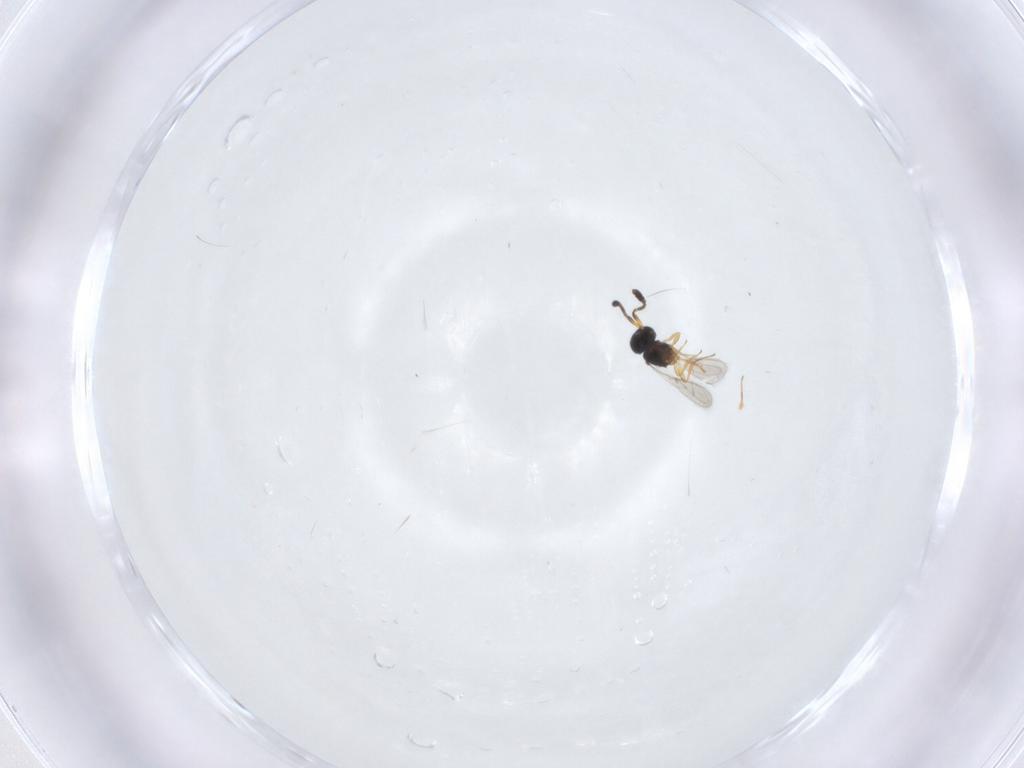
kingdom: Animalia
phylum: Arthropoda
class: Insecta
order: Hymenoptera
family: Scelionidae
